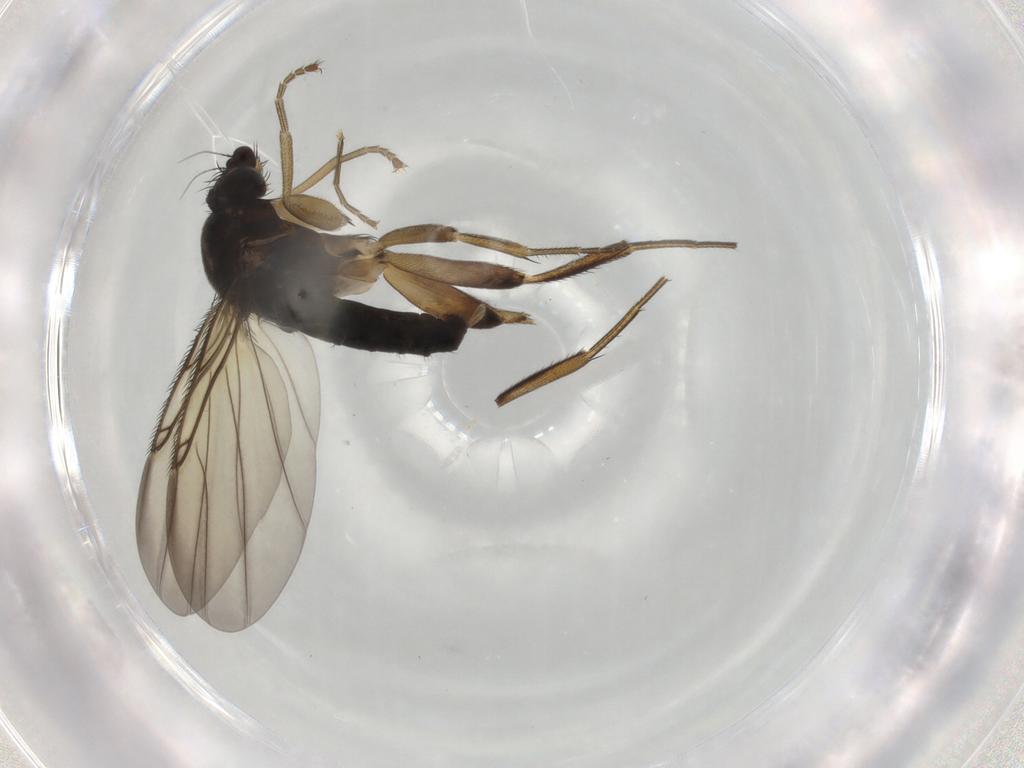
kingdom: Animalia
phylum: Arthropoda
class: Insecta
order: Diptera
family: Phoridae
